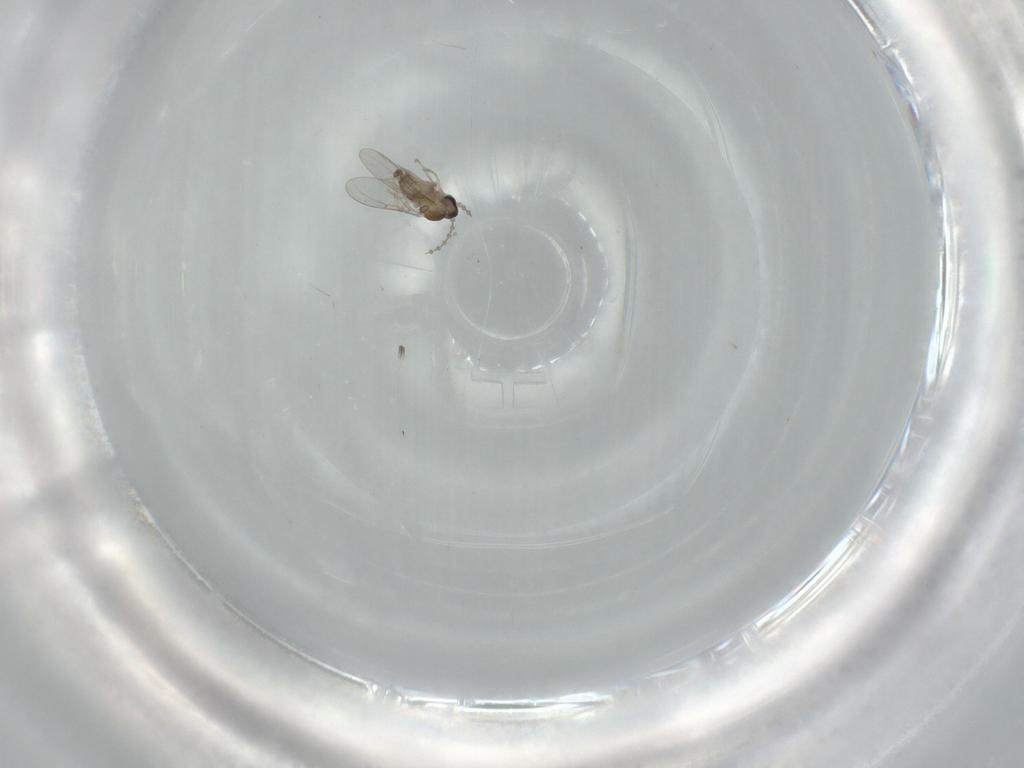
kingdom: Animalia
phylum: Arthropoda
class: Insecta
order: Diptera
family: Cecidomyiidae
